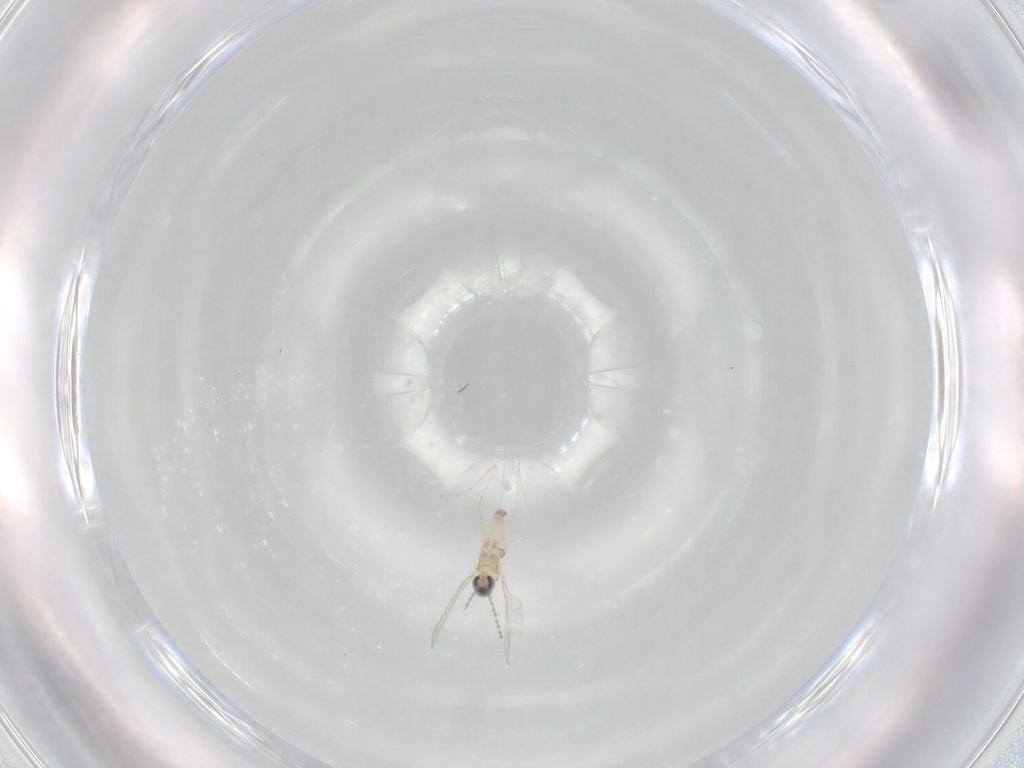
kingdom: Animalia
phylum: Arthropoda
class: Insecta
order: Diptera
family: Cecidomyiidae
